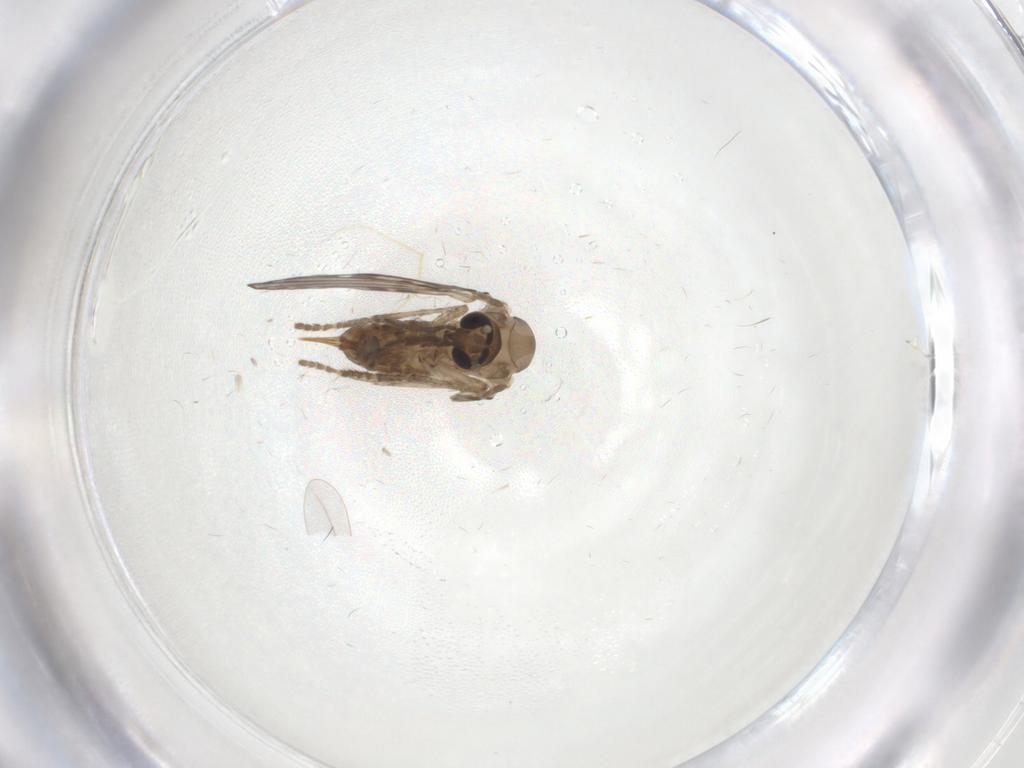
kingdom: Animalia
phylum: Arthropoda
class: Insecta
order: Diptera
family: Psychodidae
